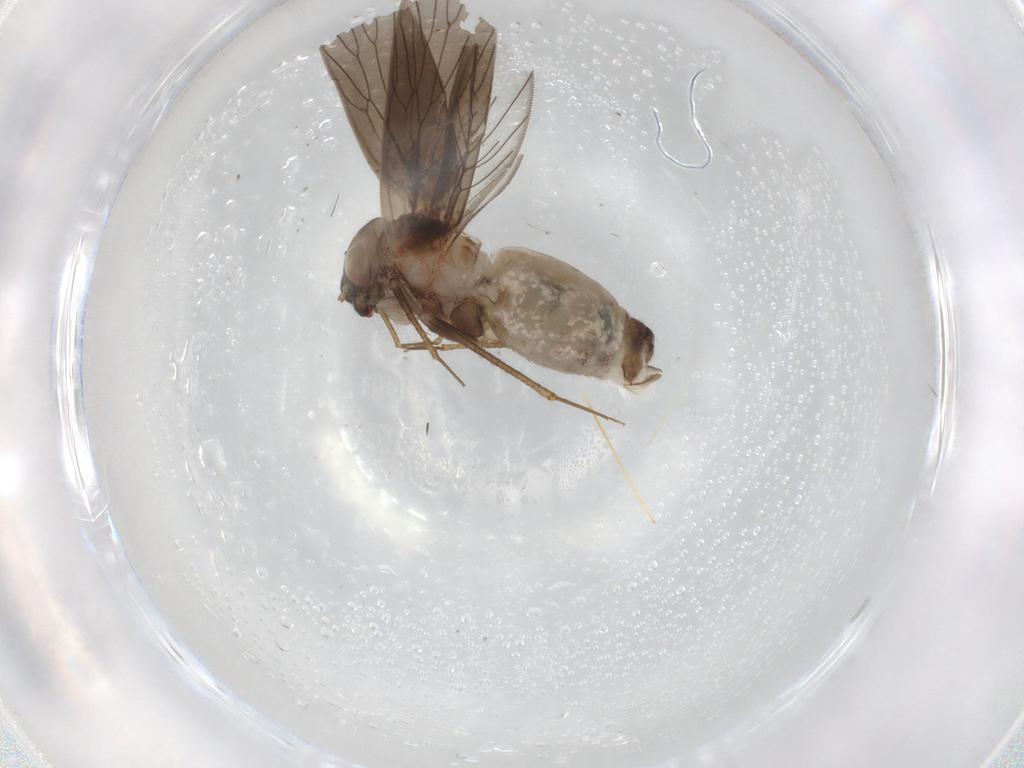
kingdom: Animalia
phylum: Arthropoda
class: Insecta
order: Psocodea
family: Lepidopsocidae
